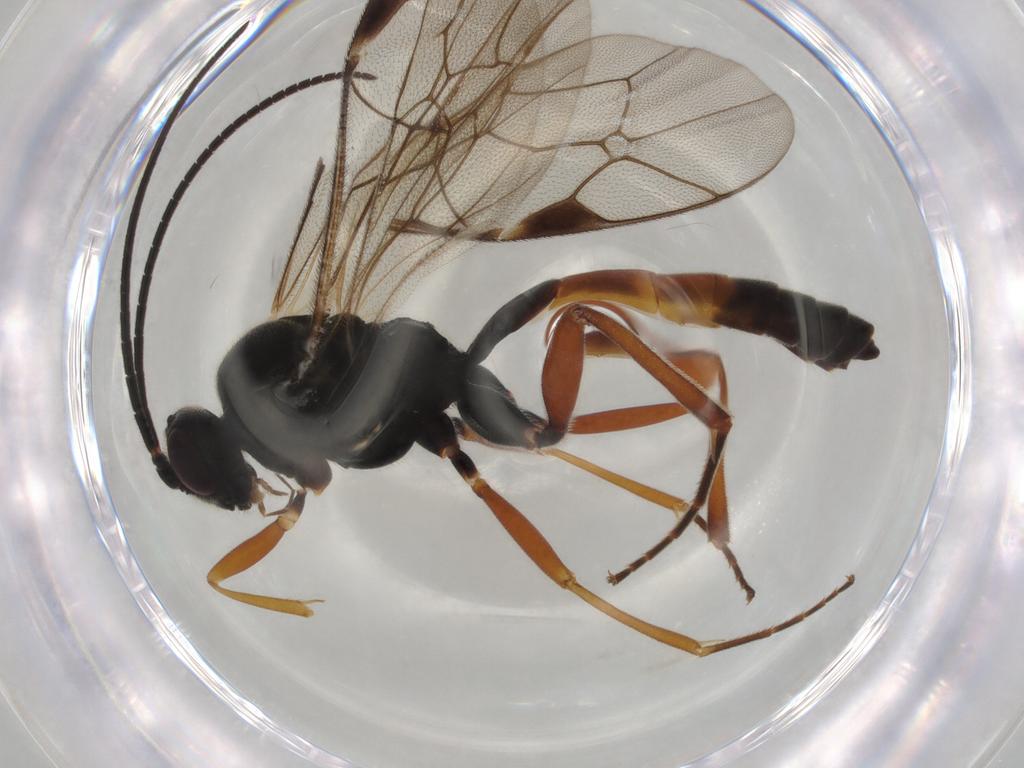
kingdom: Animalia
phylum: Arthropoda
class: Insecta
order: Hymenoptera
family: Formicidae
